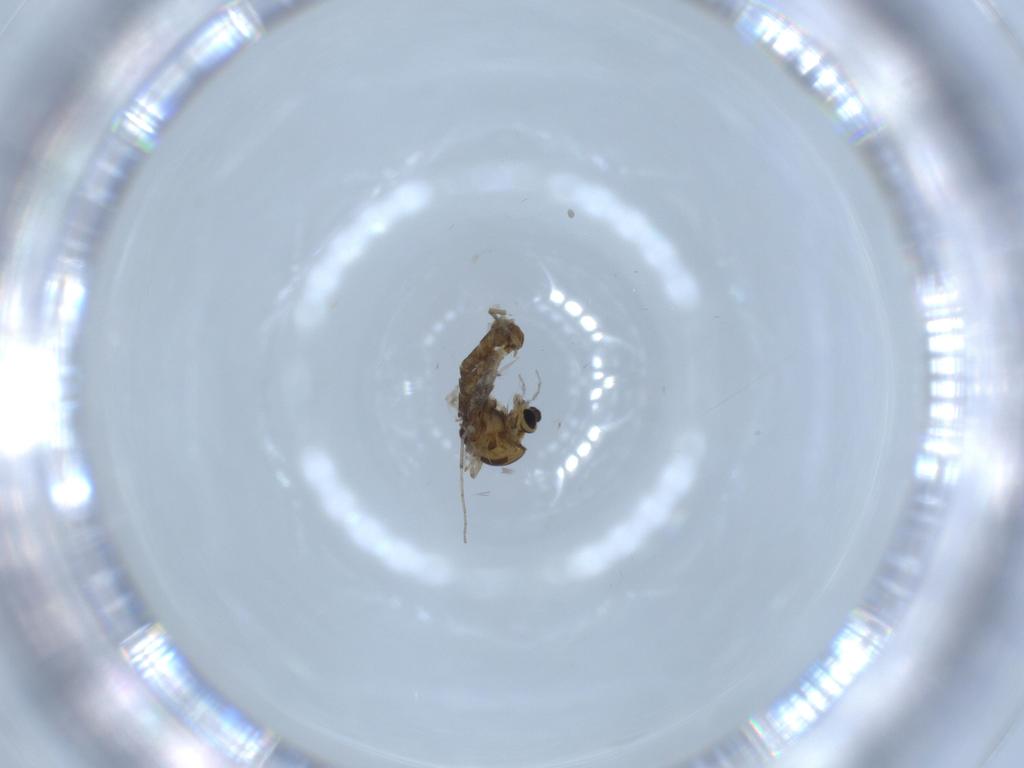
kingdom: Animalia
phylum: Arthropoda
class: Insecta
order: Diptera
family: Chironomidae
